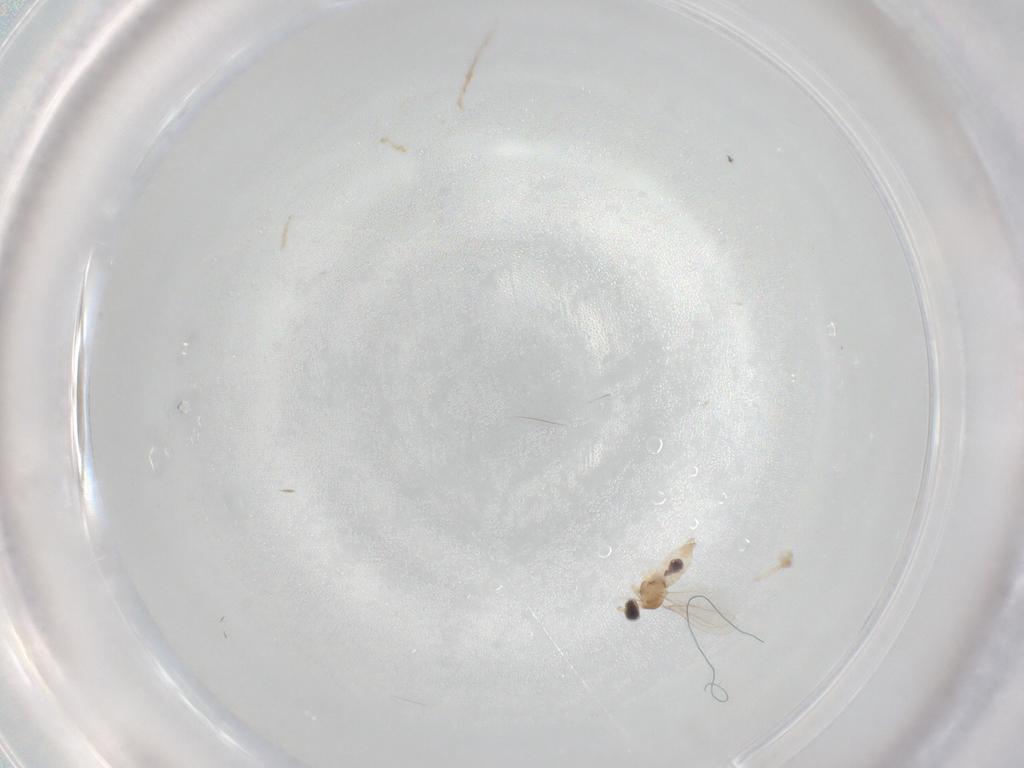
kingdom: Animalia
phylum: Arthropoda
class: Insecta
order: Diptera
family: Cecidomyiidae
